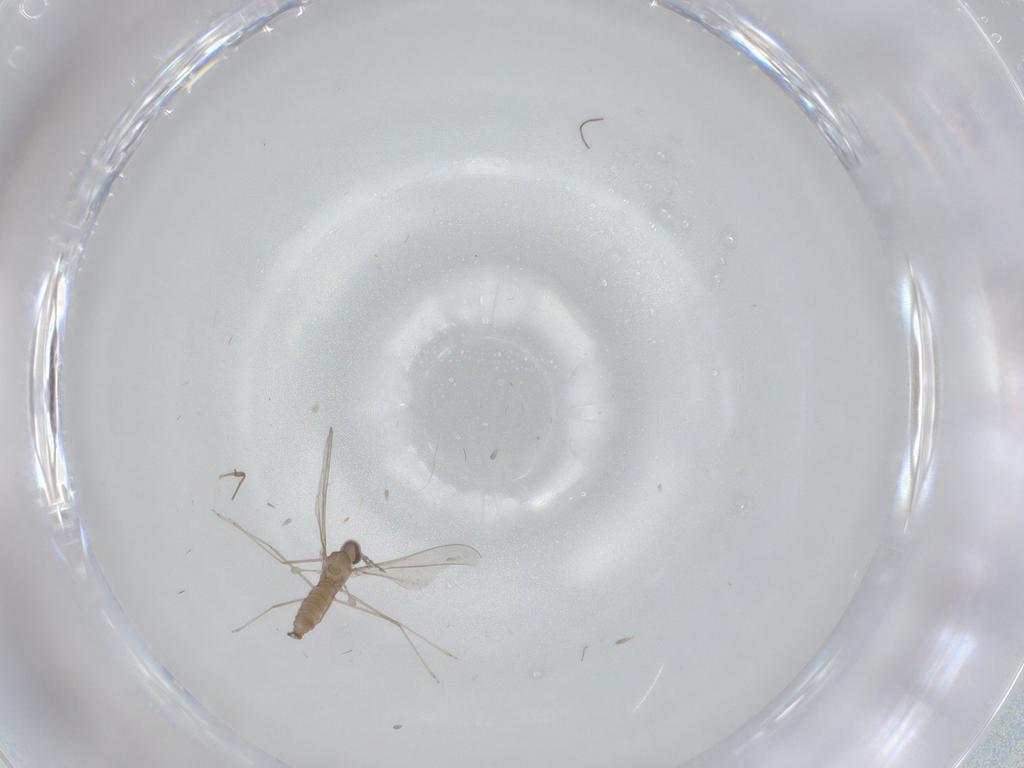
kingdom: Animalia
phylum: Arthropoda
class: Insecta
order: Diptera
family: Cecidomyiidae
